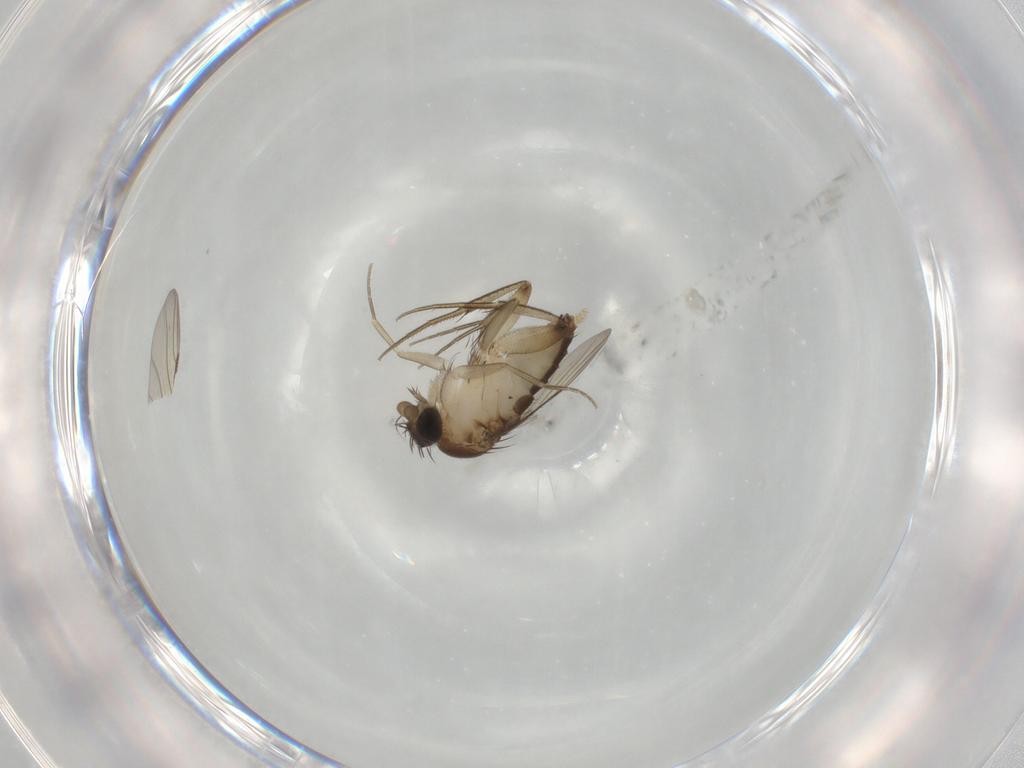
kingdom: Animalia
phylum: Arthropoda
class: Insecta
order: Diptera
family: Phoridae
